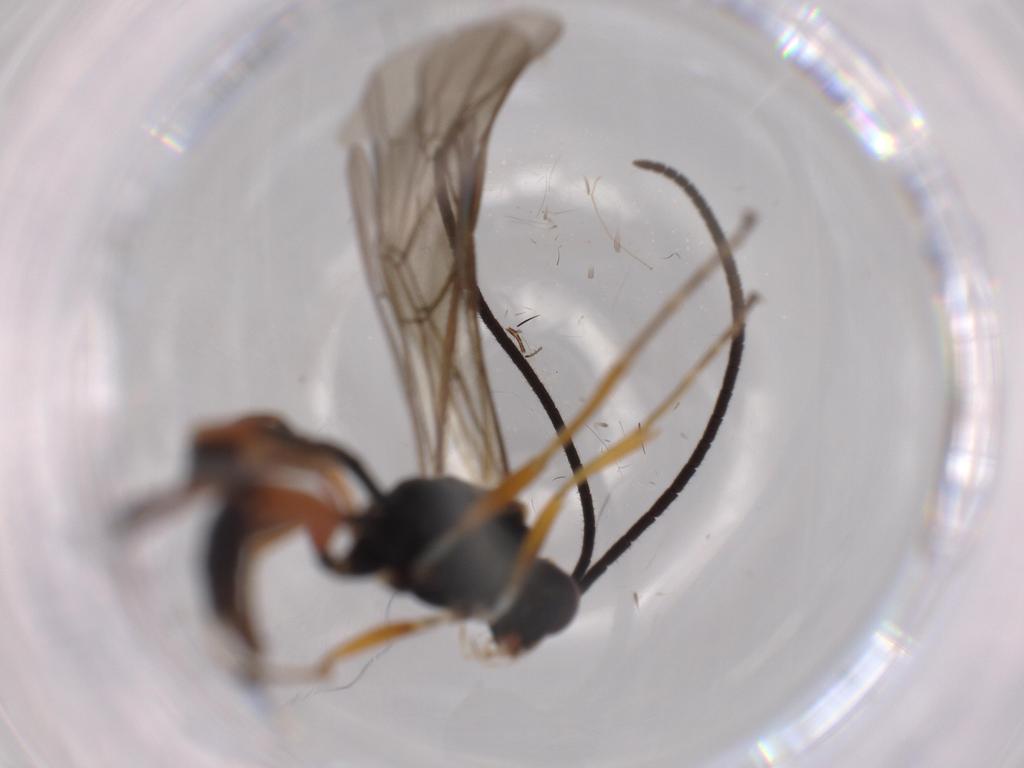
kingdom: Animalia
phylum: Arthropoda
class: Insecta
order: Hymenoptera
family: Ichneumonidae
